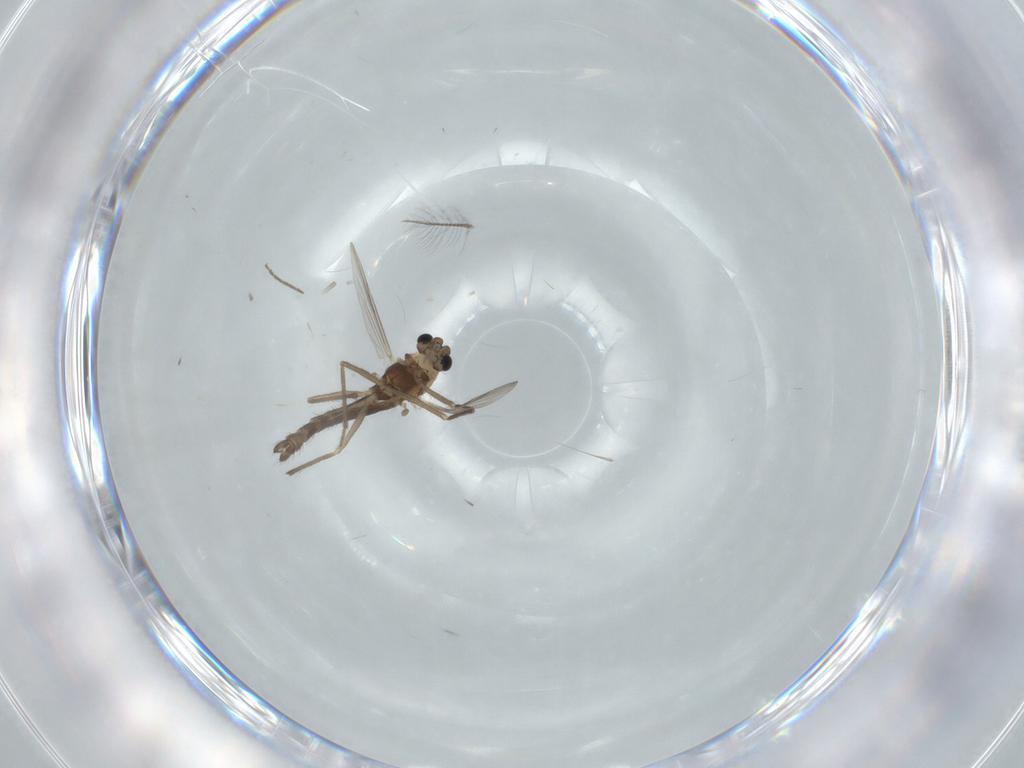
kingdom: Animalia
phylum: Arthropoda
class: Insecta
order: Diptera
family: Chironomidae
